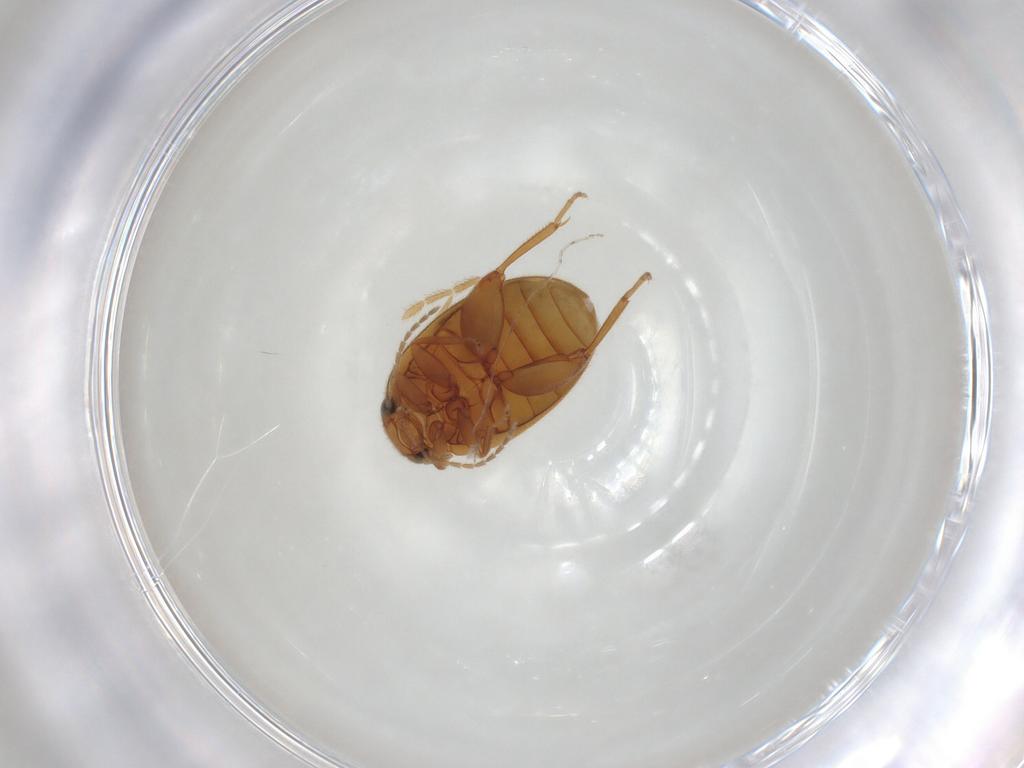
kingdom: Animalia
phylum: Arthropoda
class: Insecta
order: Coleoptera
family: Scirtidae
